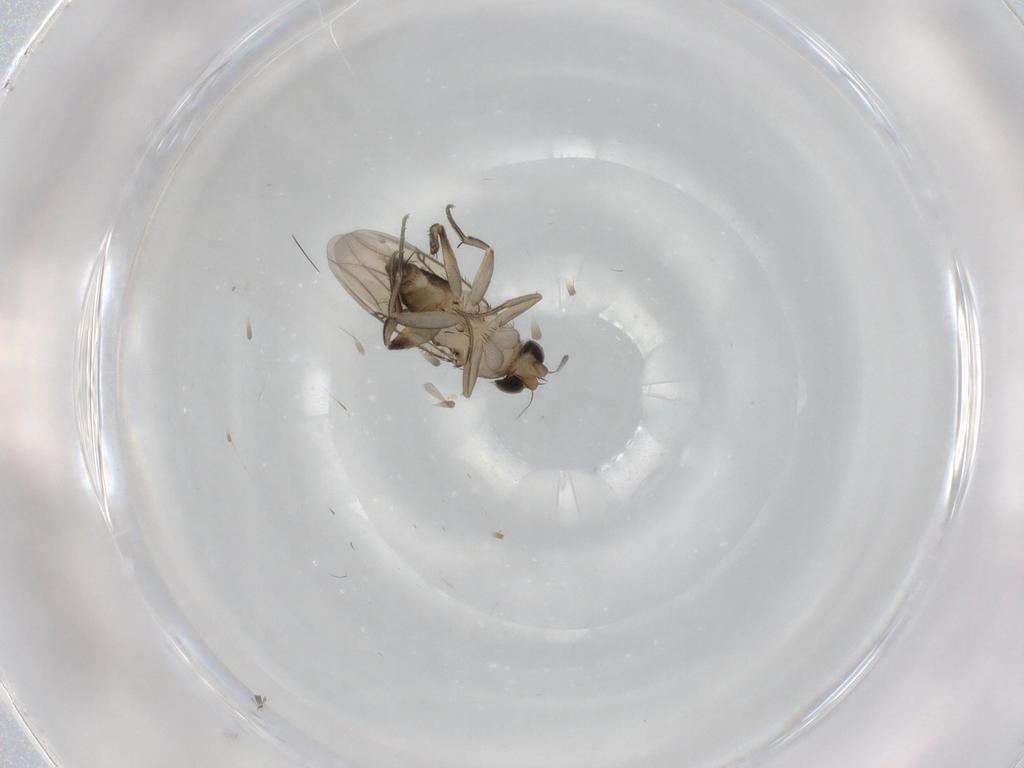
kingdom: Animalia
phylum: Arthropoda
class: Insecta
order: Diptera
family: Phoridae
